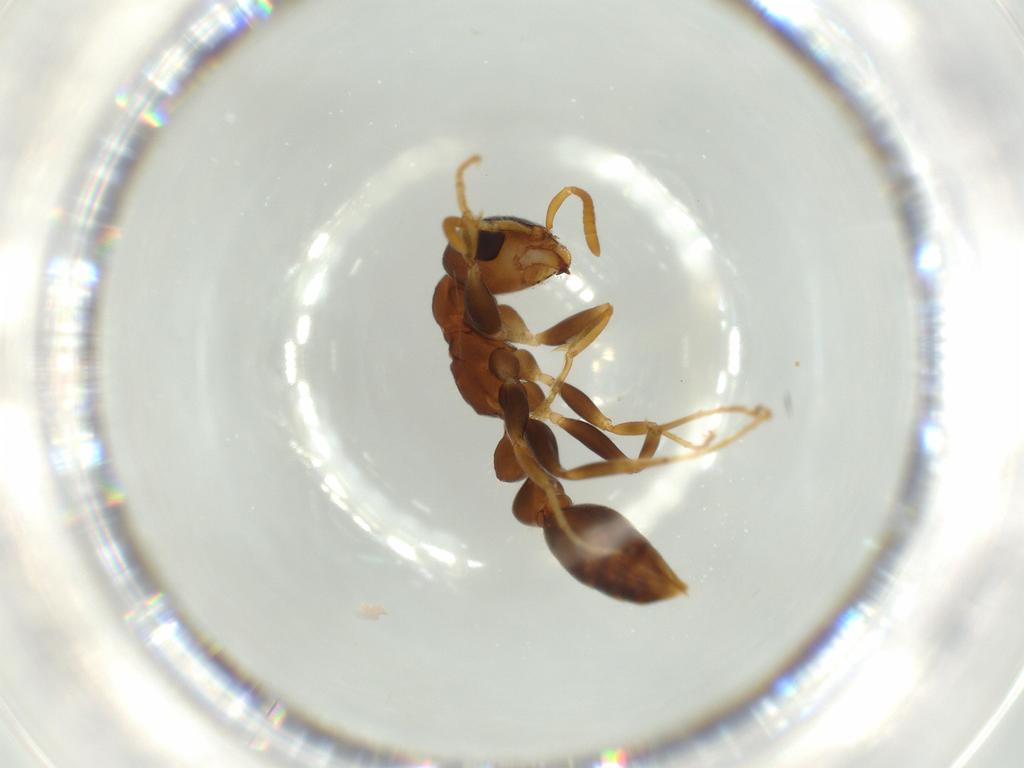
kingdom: Animalia
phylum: Arthropoda
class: Insecta
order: Hymenoptera
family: Formicidae
